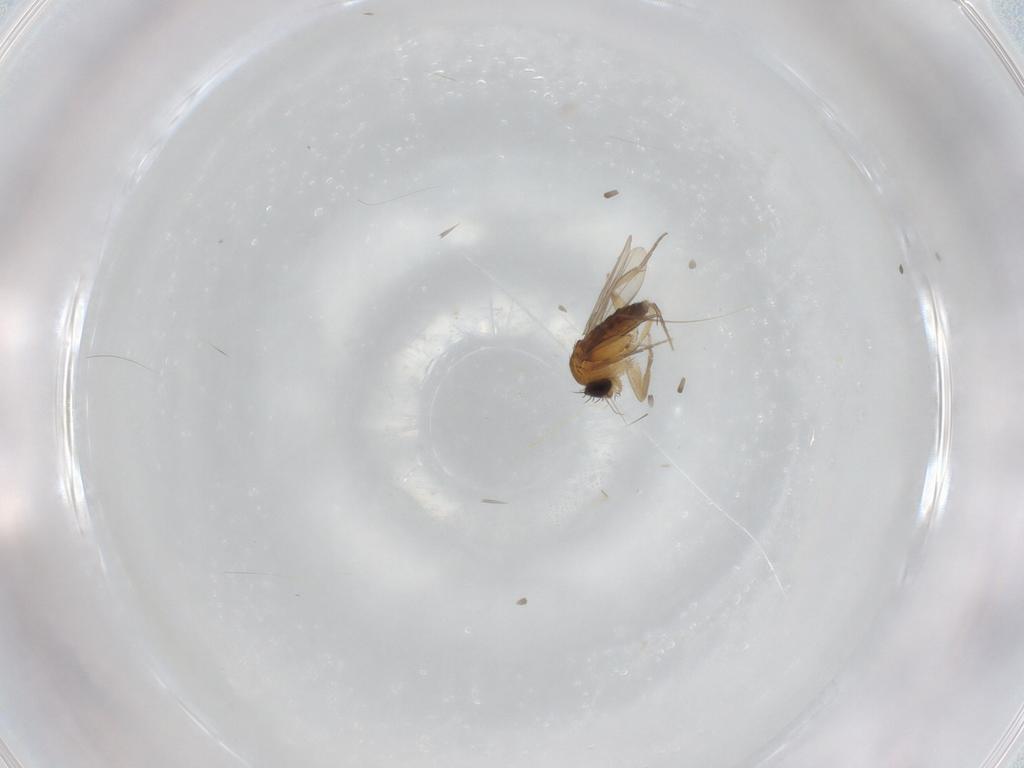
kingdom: Animalia
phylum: Arthropoda
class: Insecta
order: Diptera
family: Phoridae
